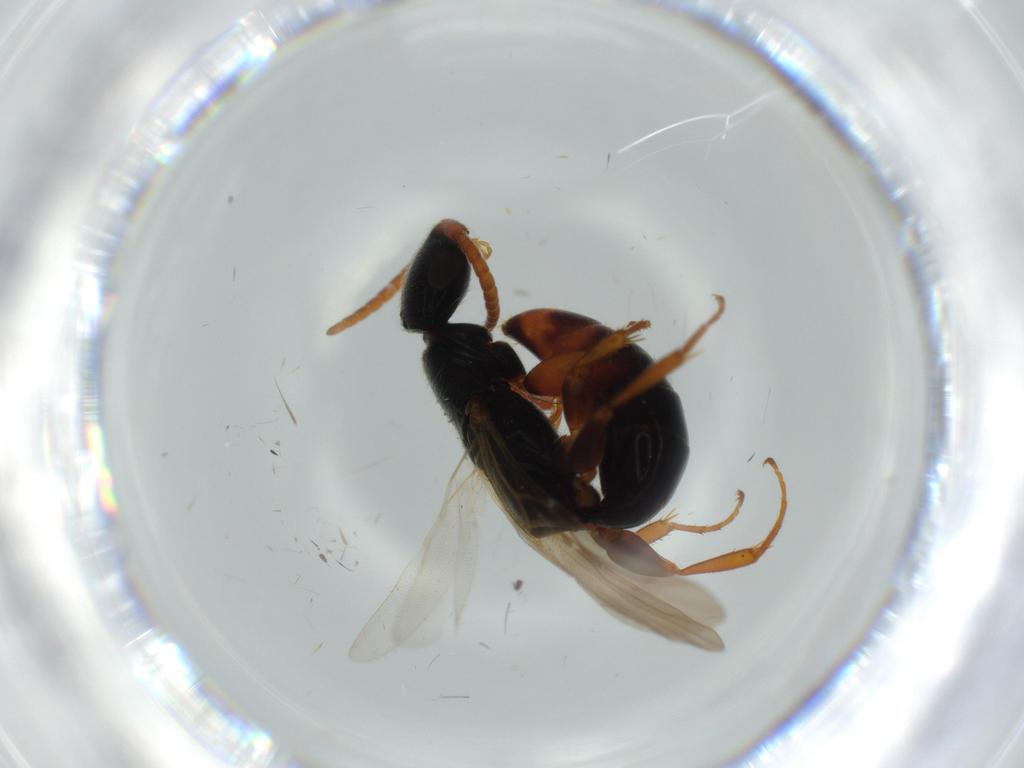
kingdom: Animalia
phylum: Arthropoda
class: Insecta
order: Hymenoptera
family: Bethylidae
